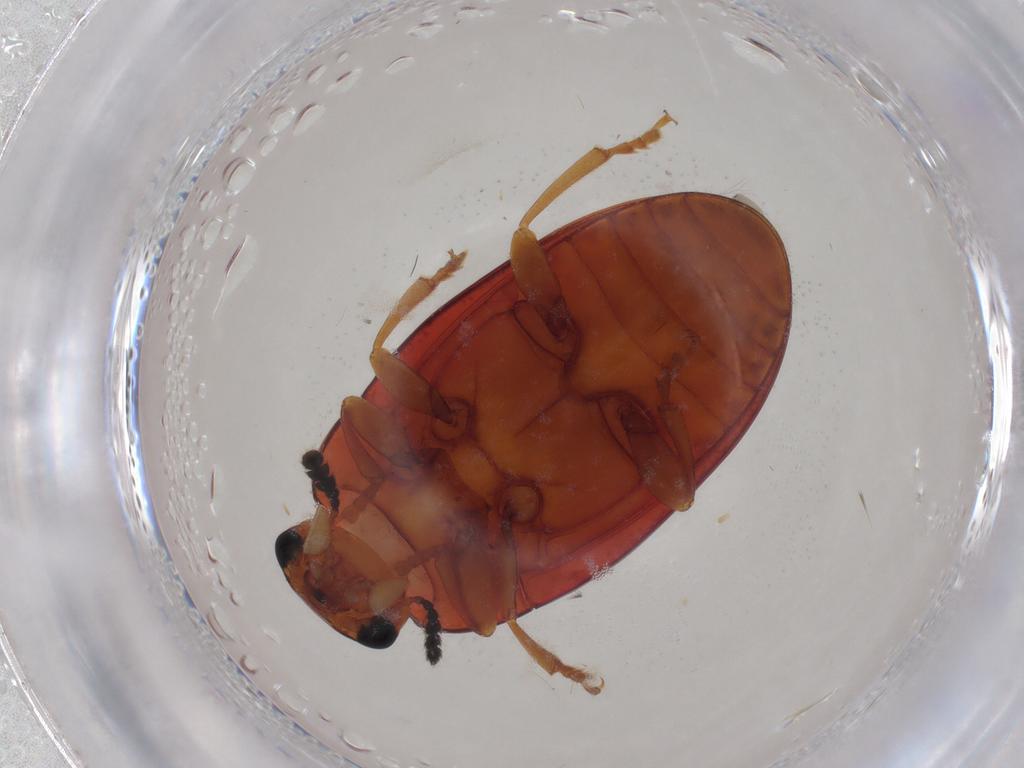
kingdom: Animalia
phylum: Arthropoda
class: Insecta
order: Coleoptera
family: Erotylidae
